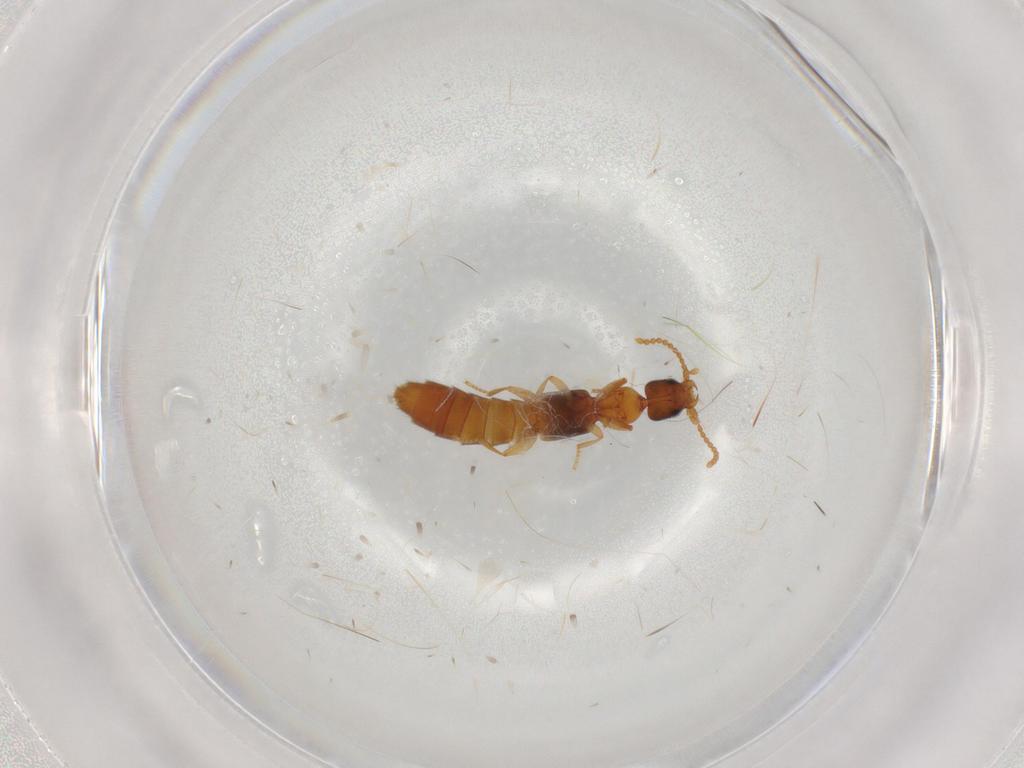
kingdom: Animalia
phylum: Arthropoda
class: Insecta
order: Coleoptera
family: Staphylinidae
